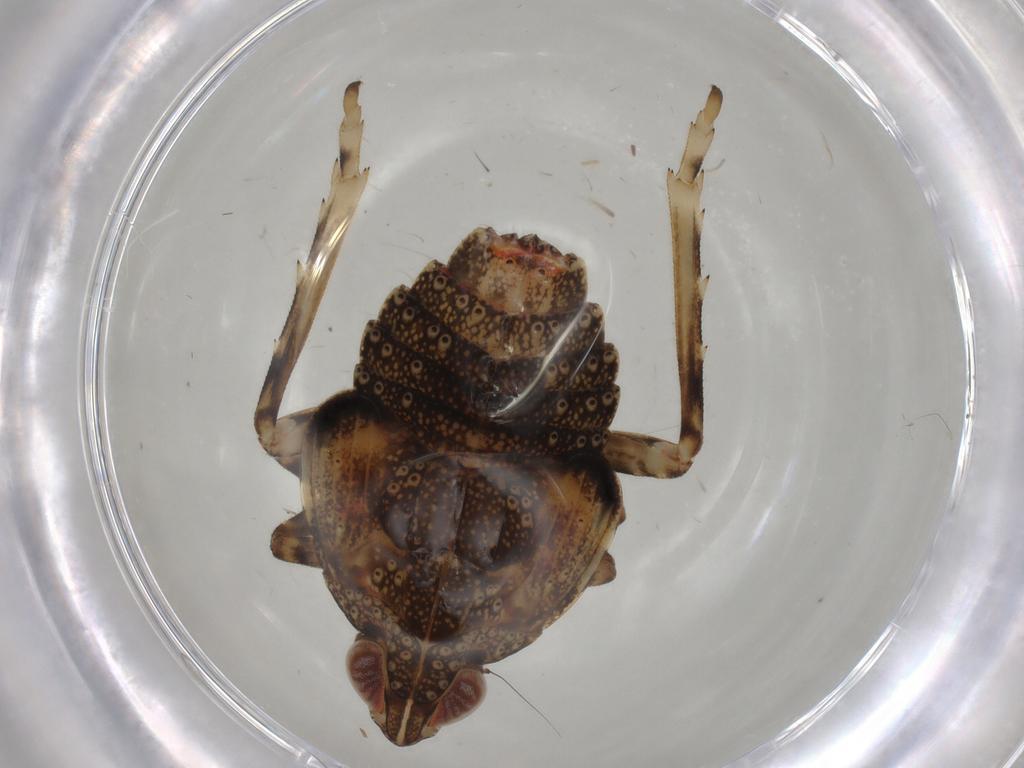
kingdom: Animalia
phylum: Arthropoda
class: Insecta
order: Hemiptera
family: Tropiduchidae
